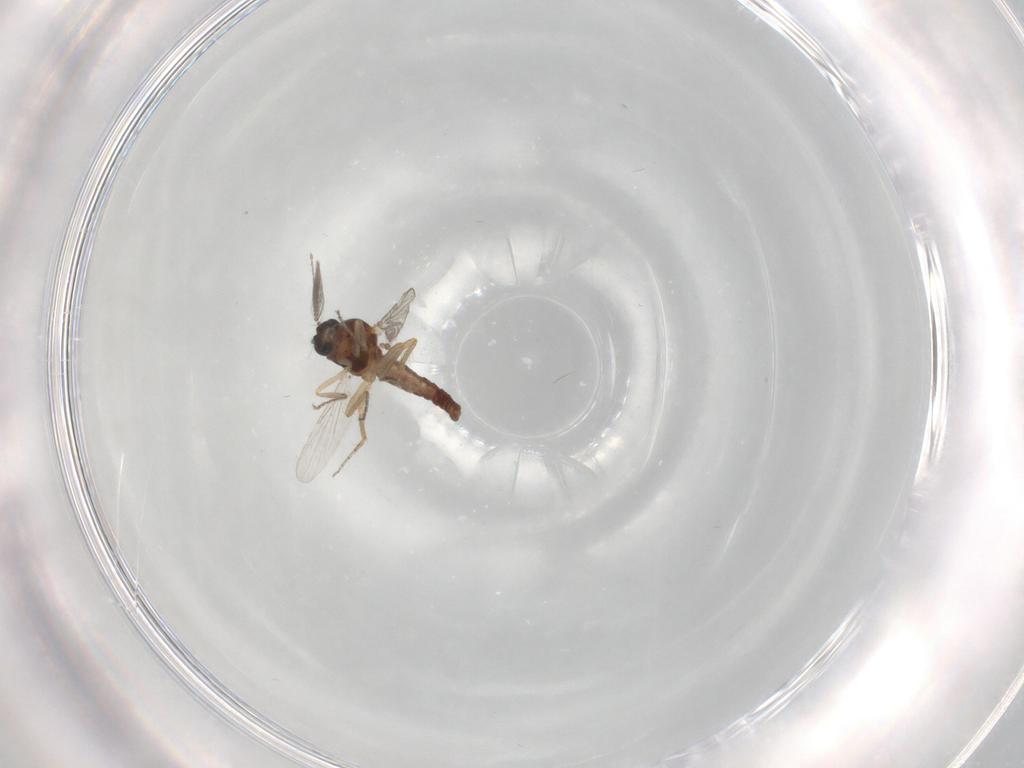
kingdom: Animalia
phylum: Arthropoda
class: Insecta
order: Diptera
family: Ceratopogonidae
